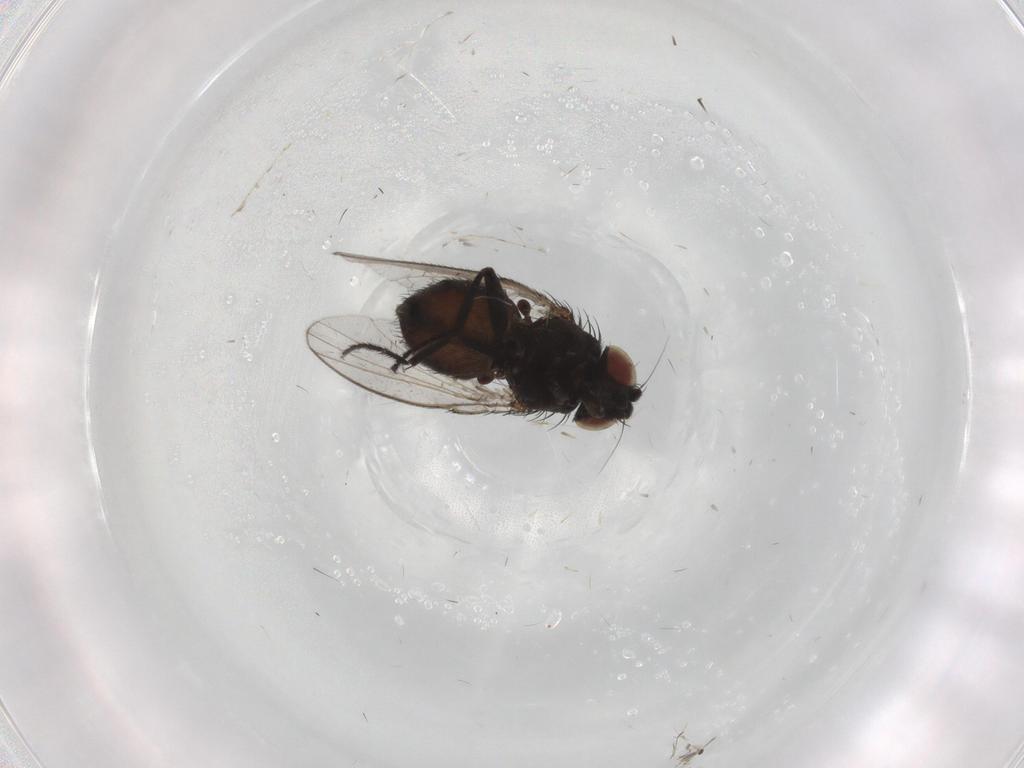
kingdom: Animalia
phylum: Arthropoda
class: Insecta
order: Diptera
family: Milichiidae
